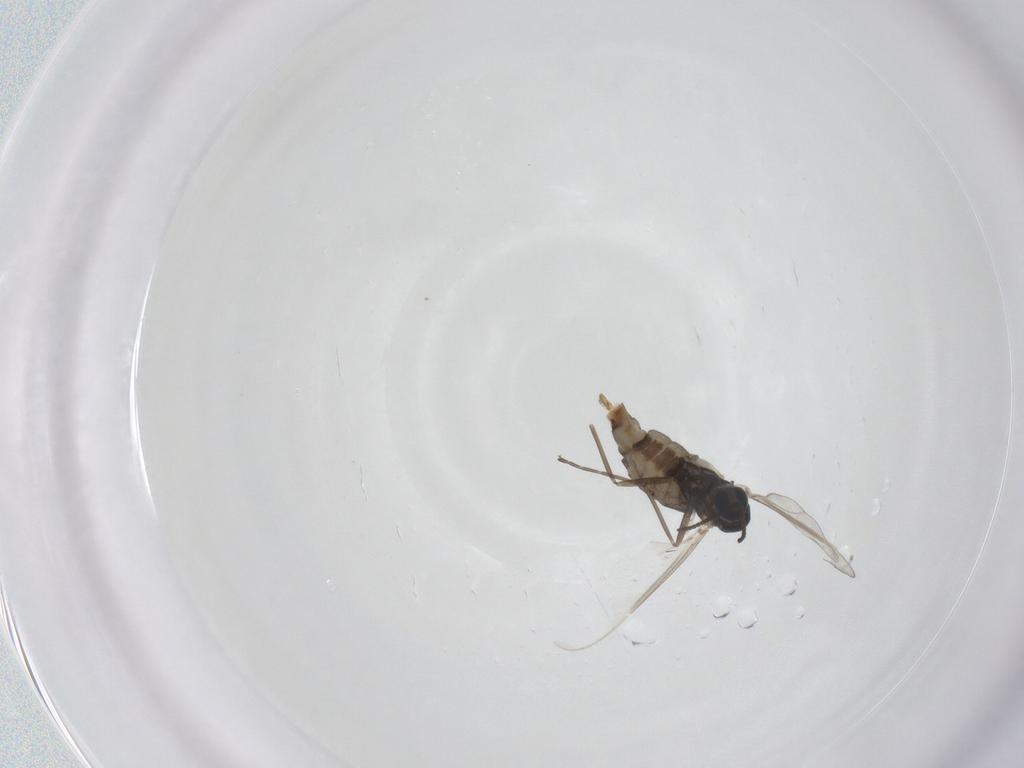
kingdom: Animalia
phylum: Arthropoda
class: Insecta
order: Diptera
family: Cecidomyiidae
